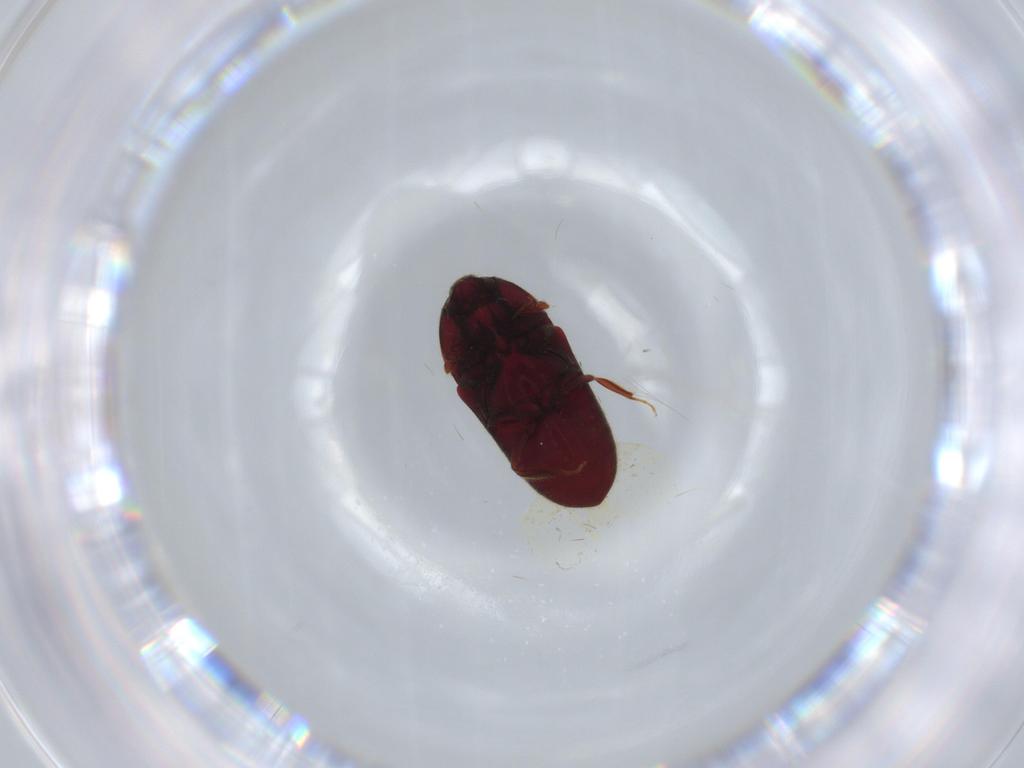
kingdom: Animalia
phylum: Arthropoda
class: Insecta
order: Coleoptera
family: Throscidae
